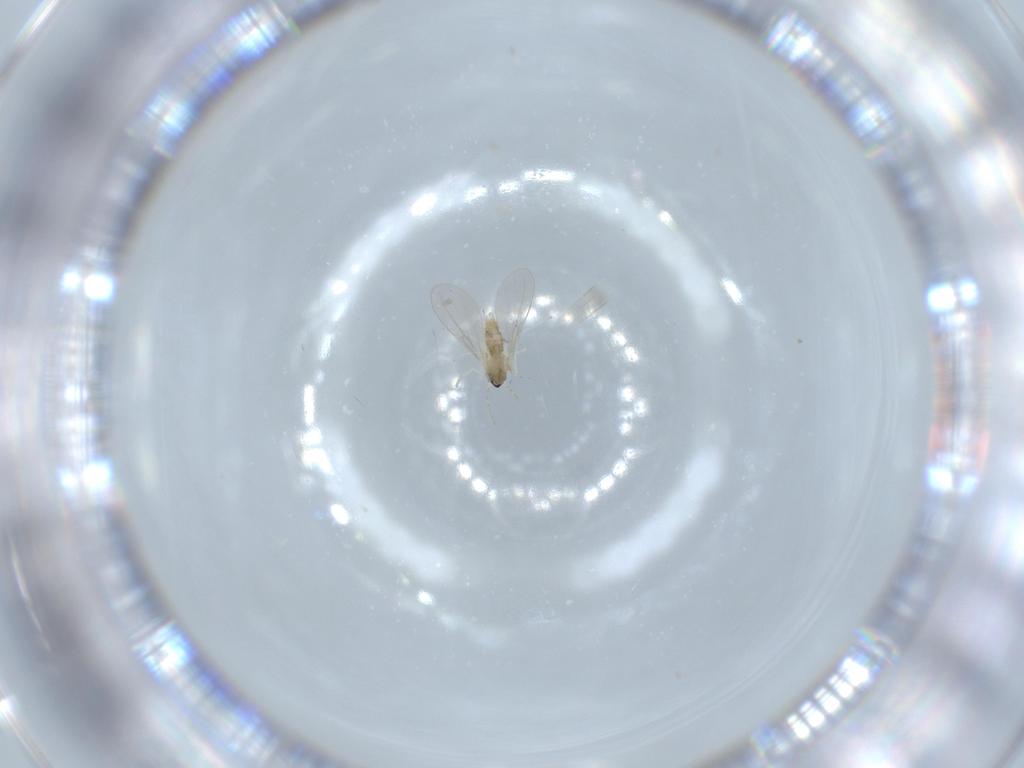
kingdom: Animalia
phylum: Arthropoda
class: Insecta
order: Diptera
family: Cecidomyiidae
